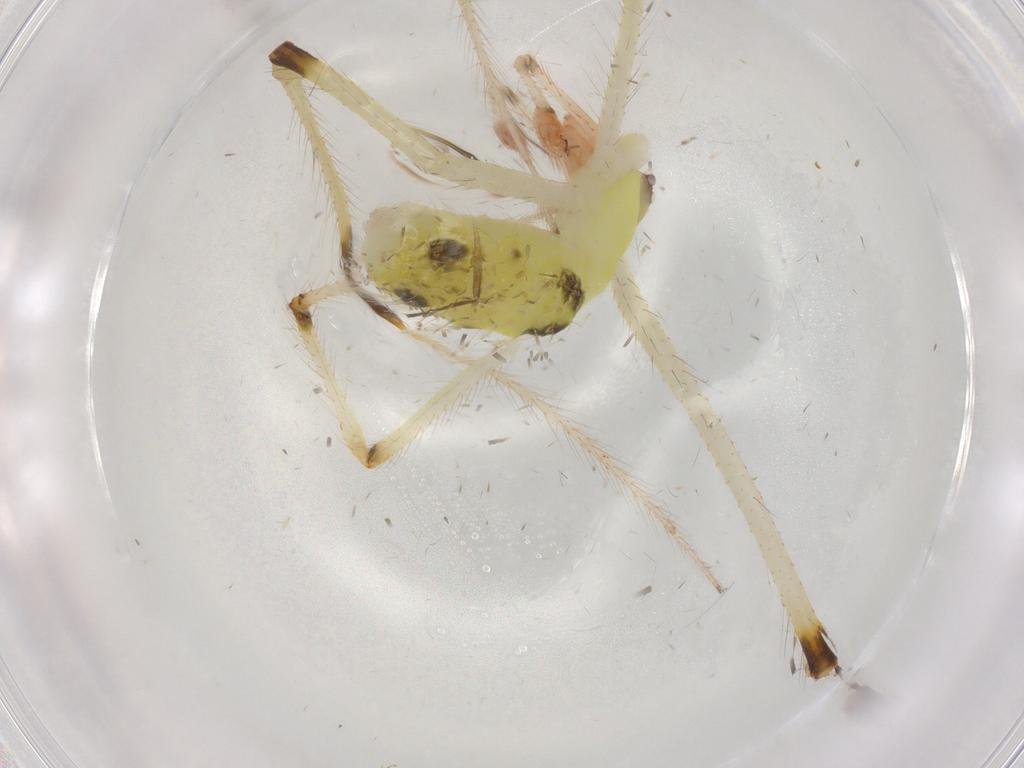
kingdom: Animalia
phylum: Arthropoda
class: Arachnida
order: Araneae
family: Theridiidae
